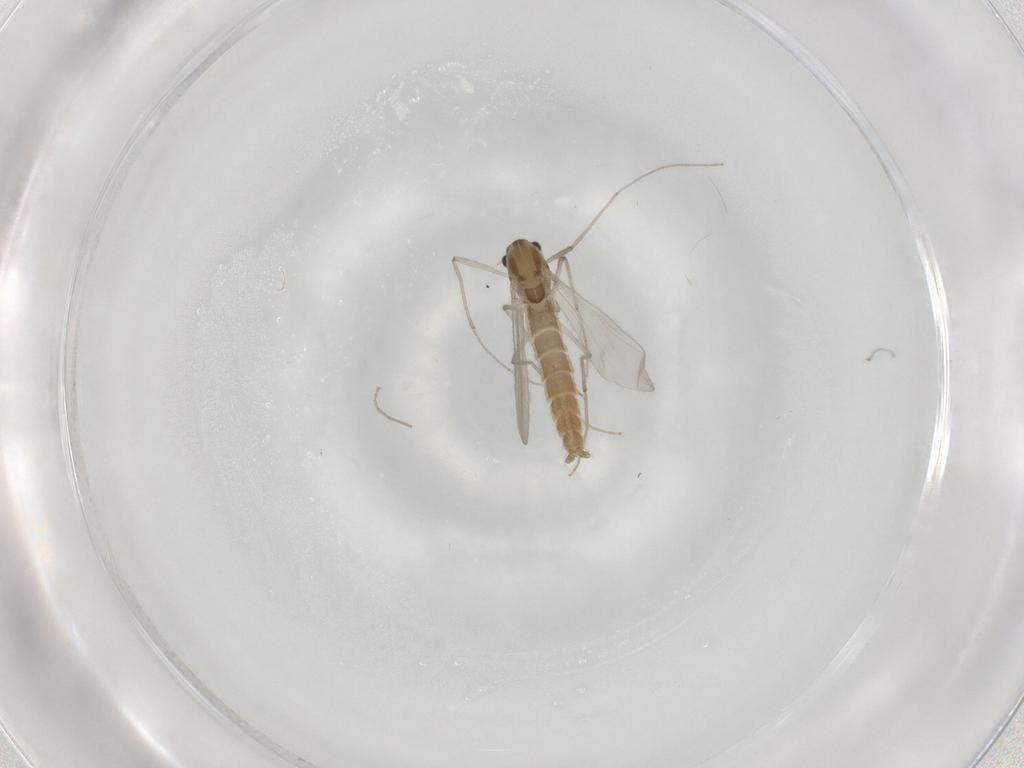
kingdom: Animalia
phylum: Arthropoda
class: Insecta
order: Diptera
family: Chironomidae
